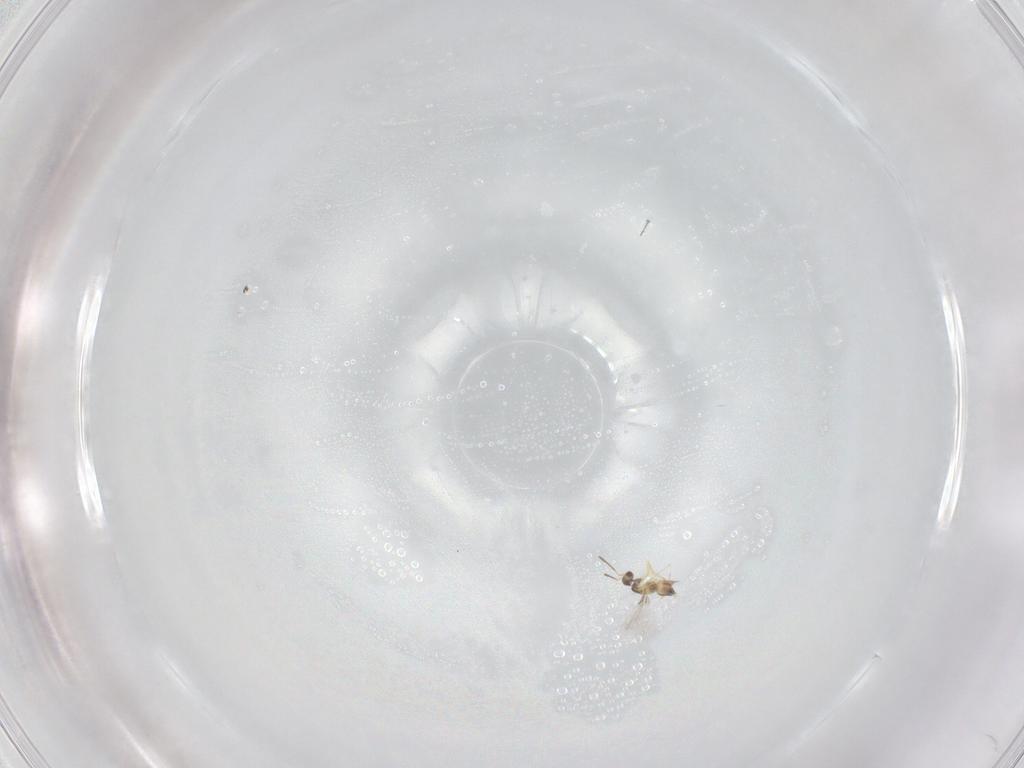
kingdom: Animalia
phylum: Arthropoda
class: Insecta
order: Hymenoptera
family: Mymaridae
